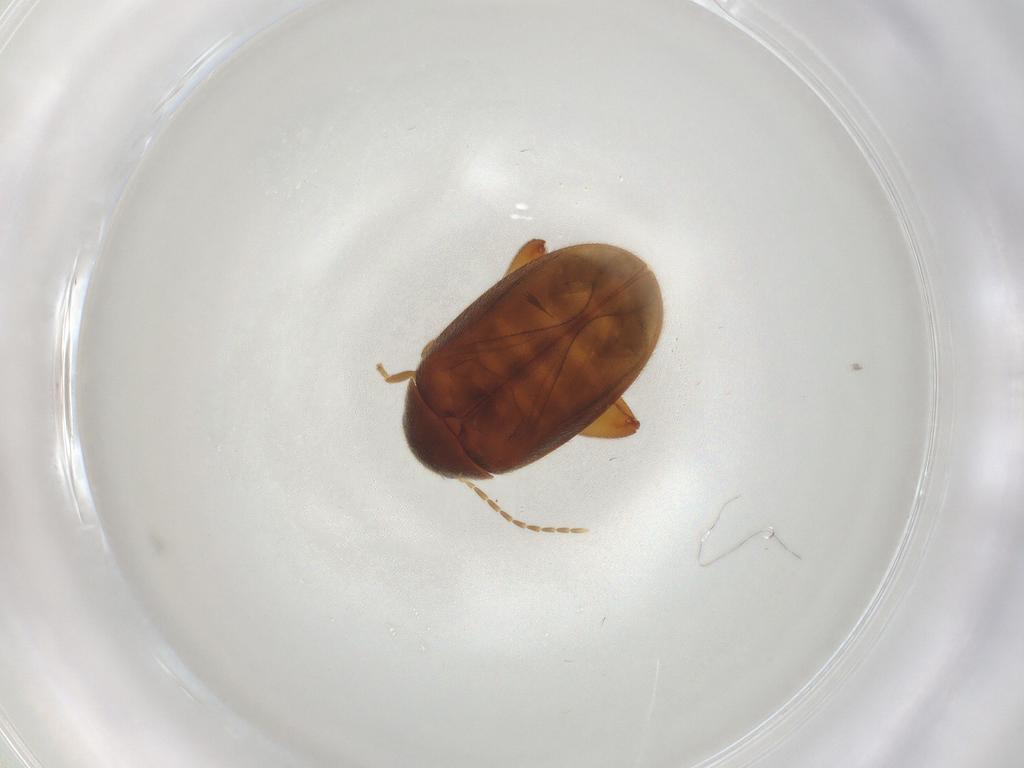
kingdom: Animalia
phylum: Arthropoda
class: Insecta
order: Coleoptera
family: Scirtidae
